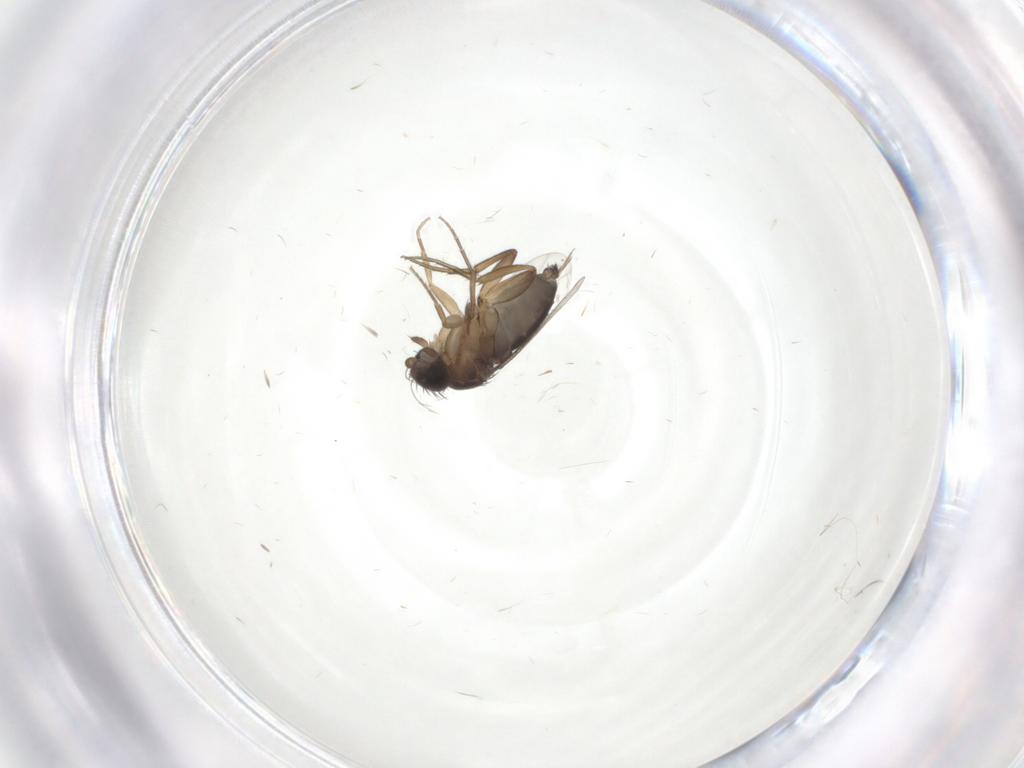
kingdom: Animalia
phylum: Arthropoda
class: Insecta
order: Diptera
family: Phoridae
